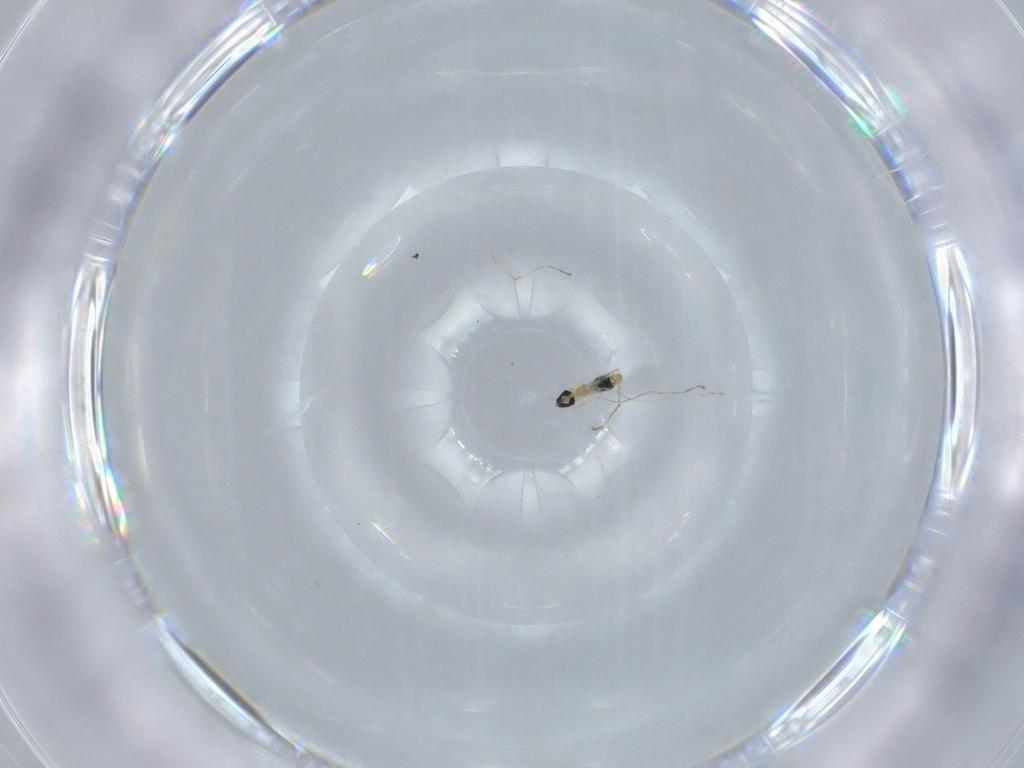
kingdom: Animalia
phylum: Arthropoda
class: Insecta
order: Diptera
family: Cecidomyiidae
